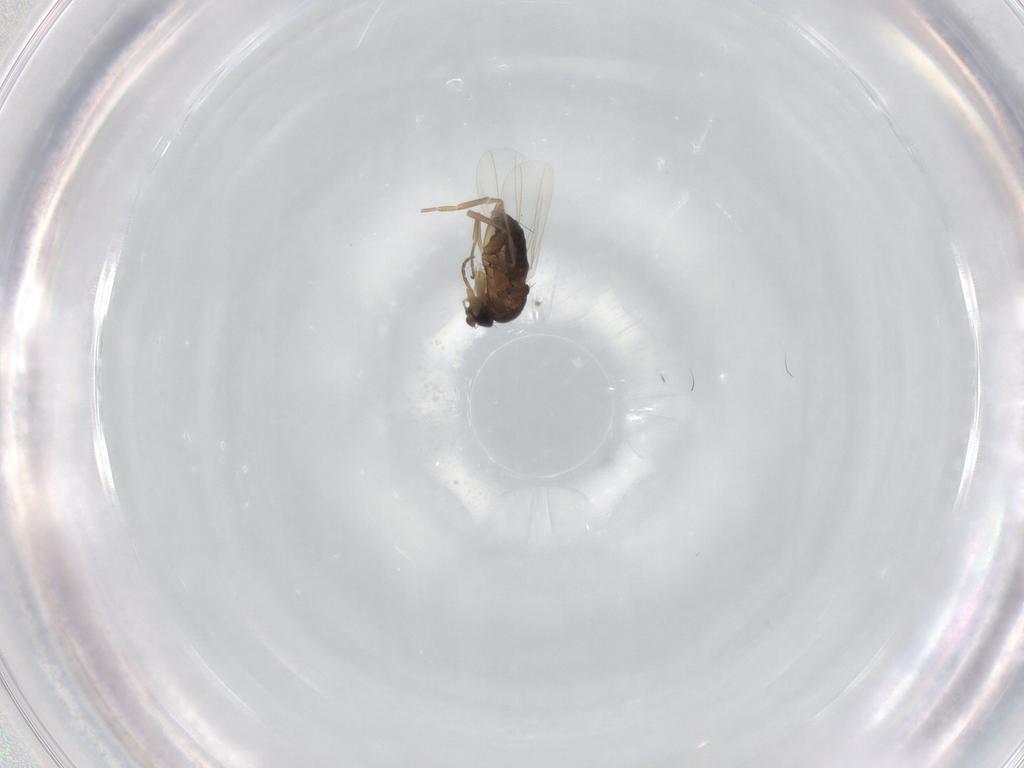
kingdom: Animalia
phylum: Arthropoda
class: Insecta
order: Diptera
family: Phoridae
